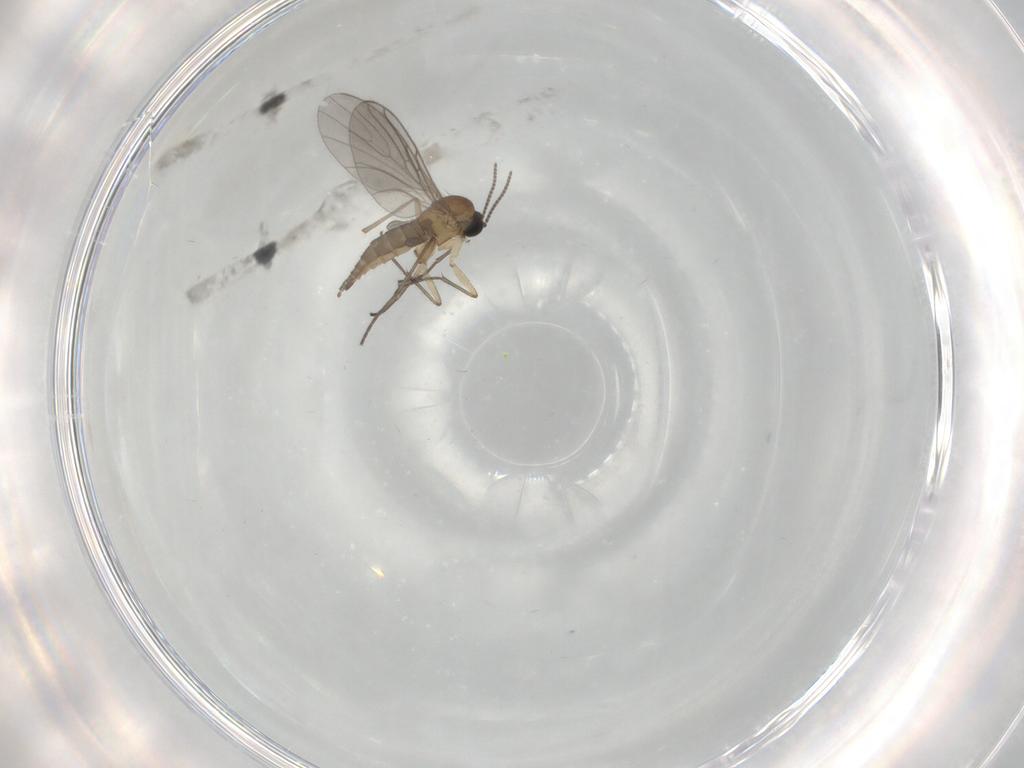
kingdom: Animalia
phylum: Arthropoda
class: Insecta
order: Diptera
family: Sciaridae
